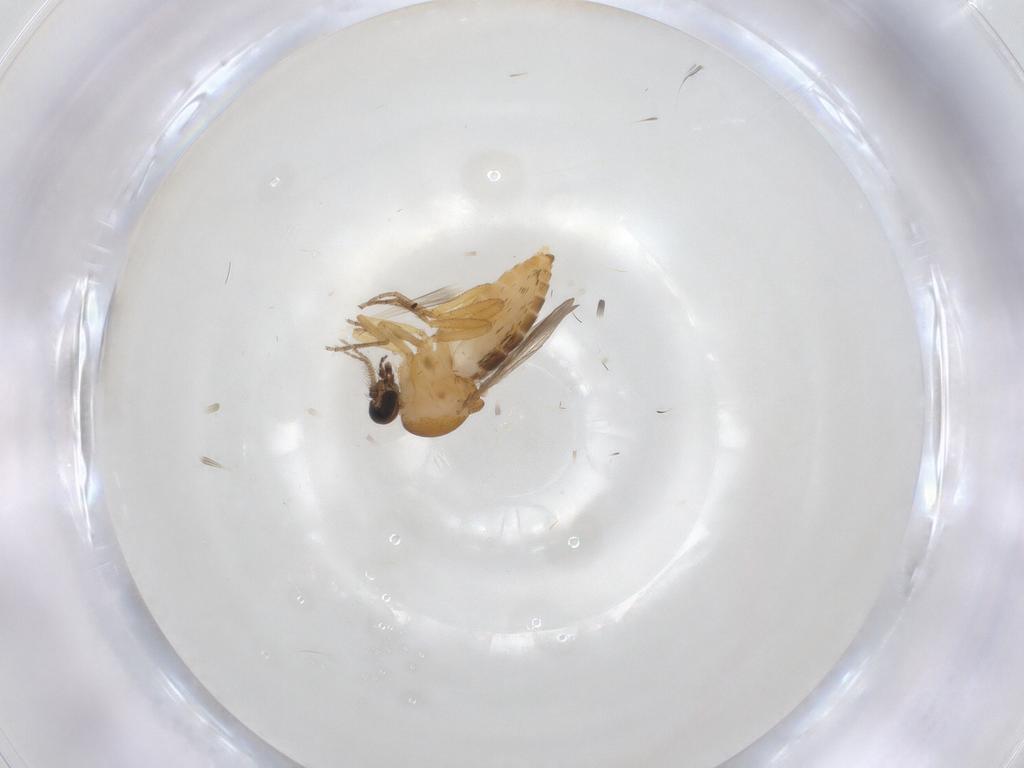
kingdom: Animalia
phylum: Arthropoda
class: Insecta
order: Diptera
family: Ceratopogonidae
